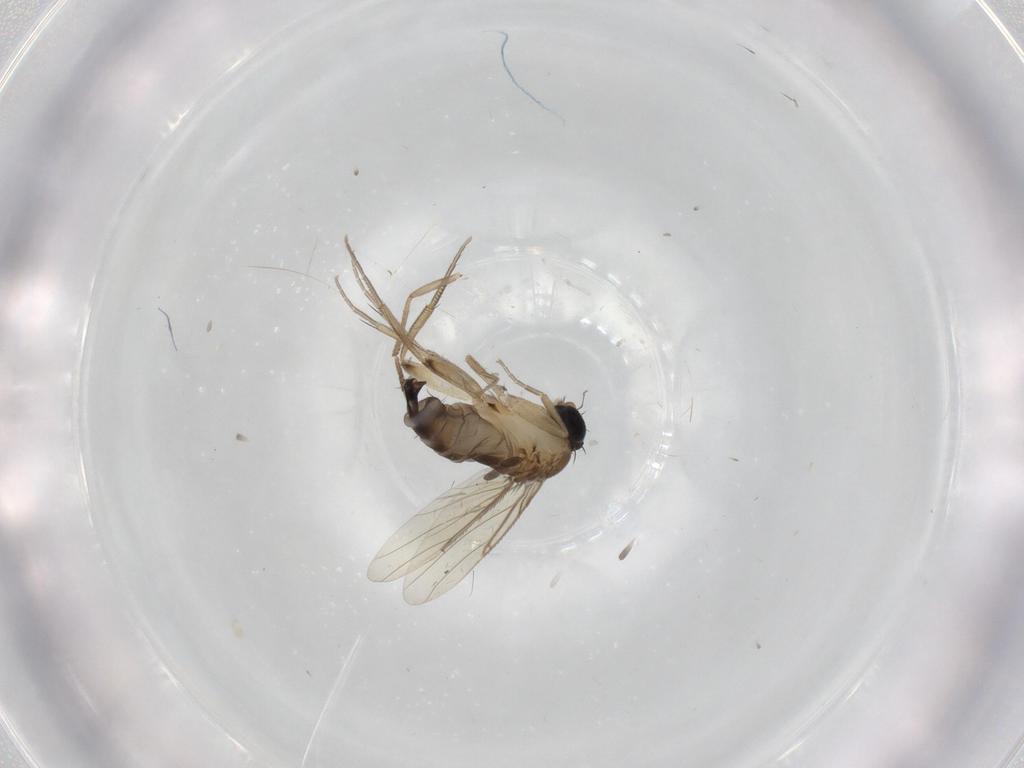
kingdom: Animalia
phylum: Arthropoda
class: Insecta
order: Diptera
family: Phoridae
